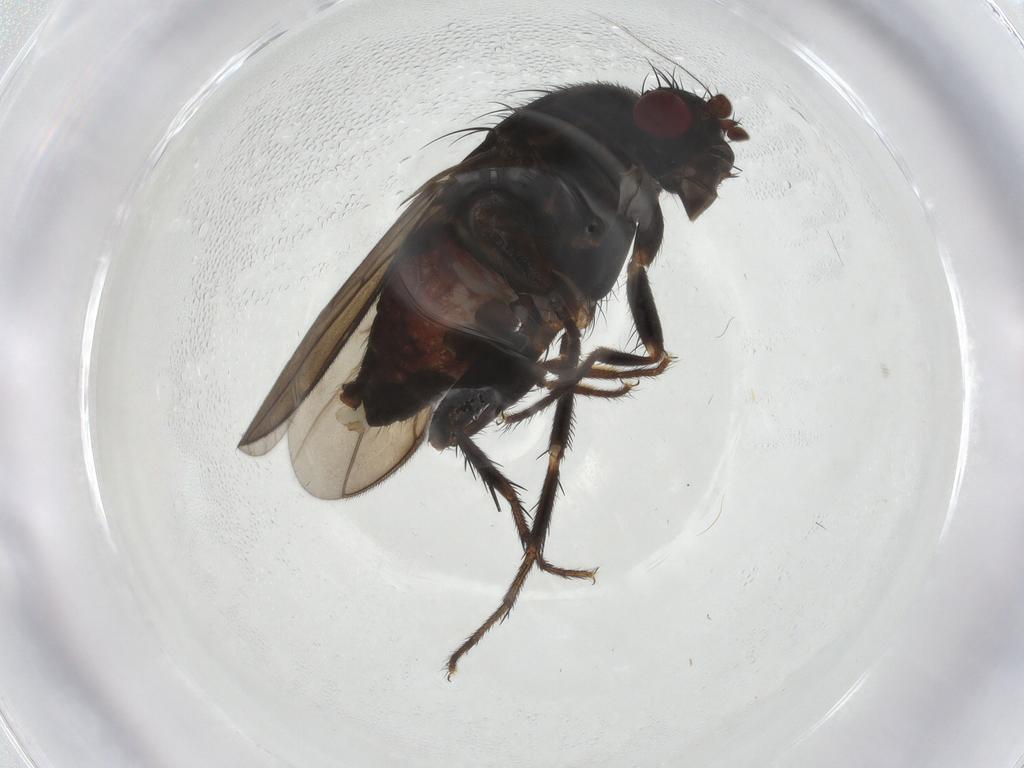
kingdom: Animalia
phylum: Arthropoda
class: Insecta
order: Diptera
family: Sphaeroceridae
